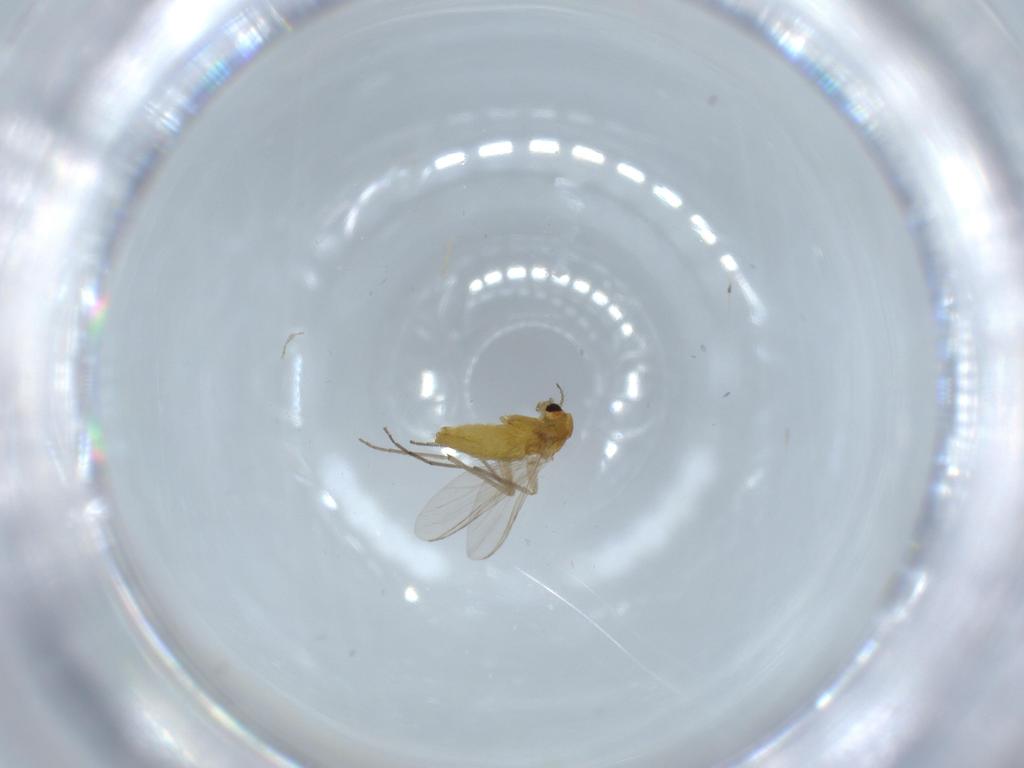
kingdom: Animalia
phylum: Arthropoda
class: Insecta
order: Diptera
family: Chironomidae
